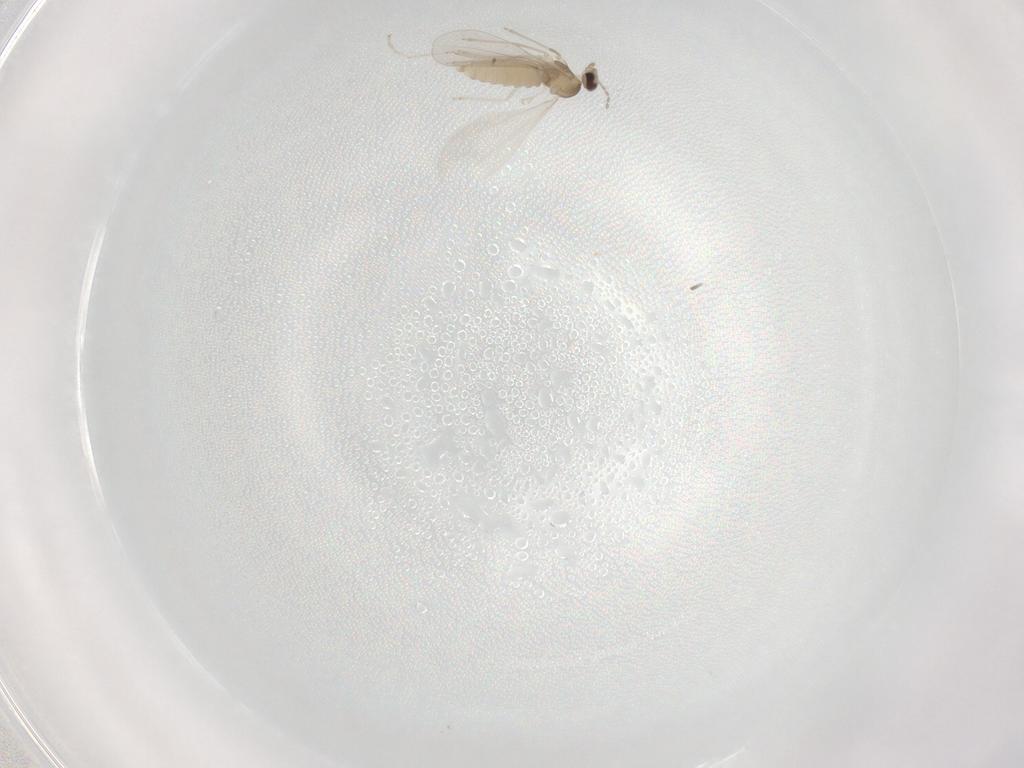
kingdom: Animalia
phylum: Arthropoda
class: Insecta
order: Diptera
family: Cecidomyiidae
